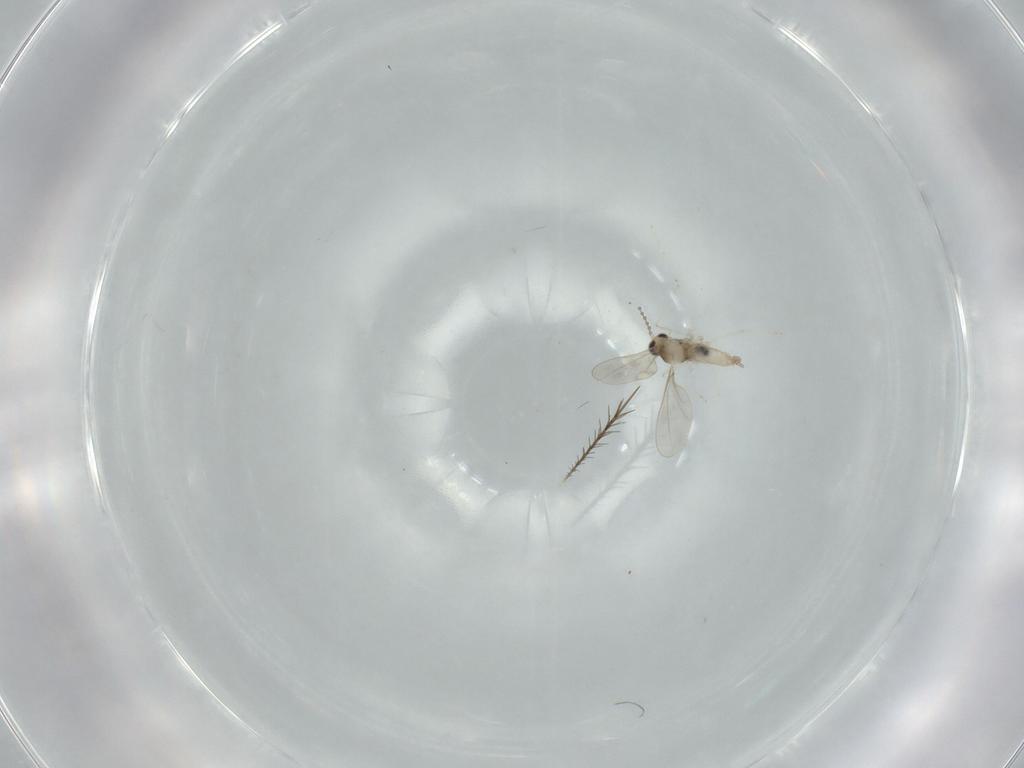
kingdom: Animalia
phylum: Arthropoda
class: Insecta
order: Diptera
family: Cecidomyiidae
